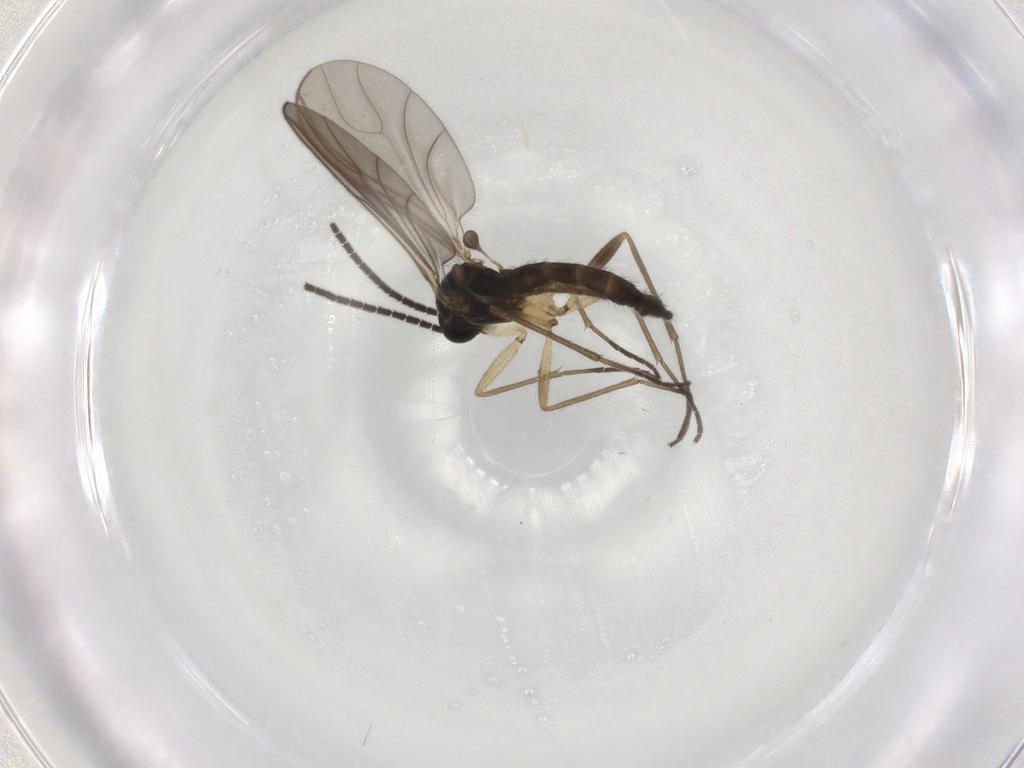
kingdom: Animalia
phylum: Arthropoda
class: Insecta
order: Diptera
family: Sciaridae
